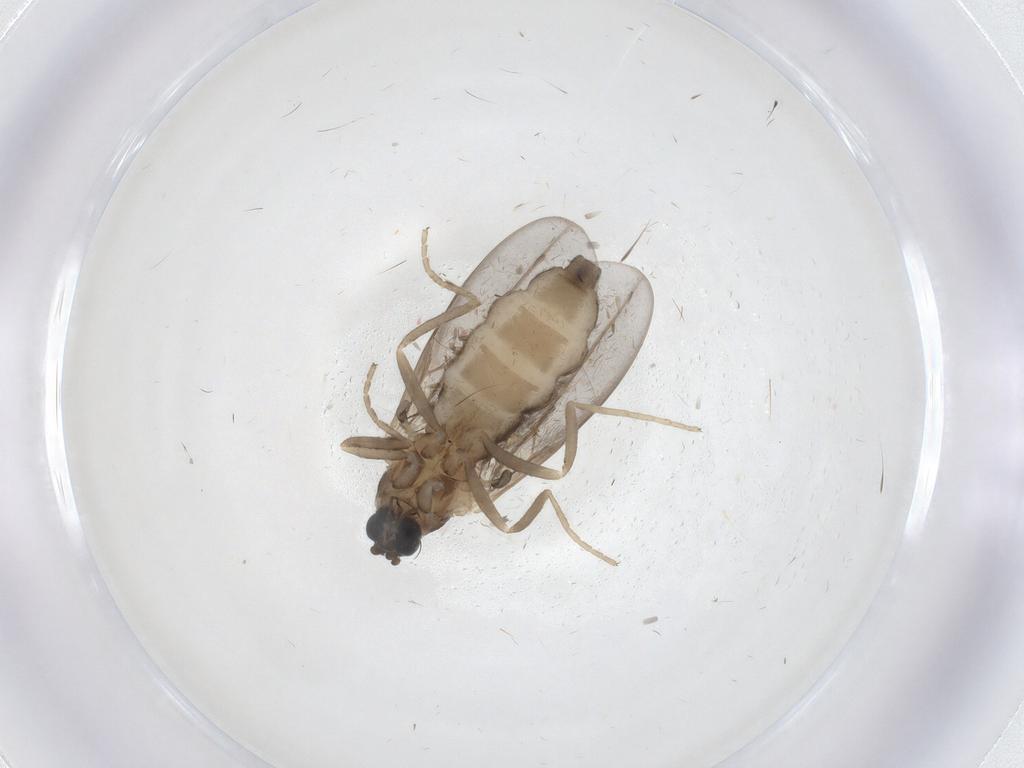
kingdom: Animalia
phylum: Arthropoda
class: Insecta
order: Diptera
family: Cecidomyiidae
